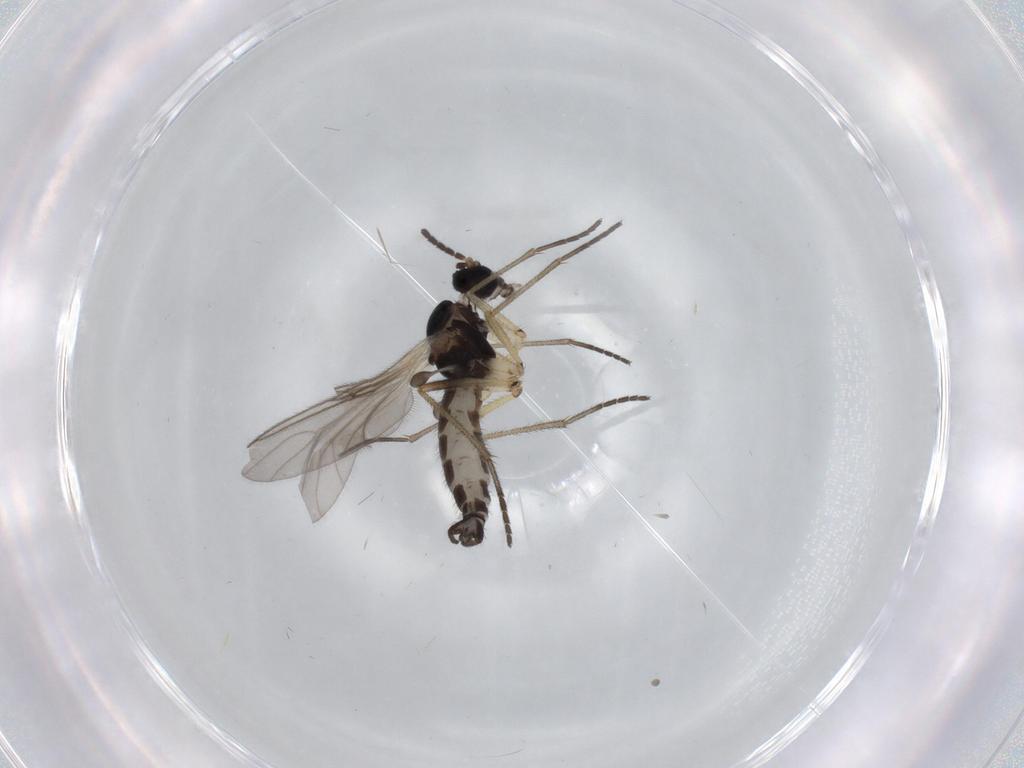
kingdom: Animalia
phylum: Arthropoda
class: Insecta
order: Diptera
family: Sciaridae
